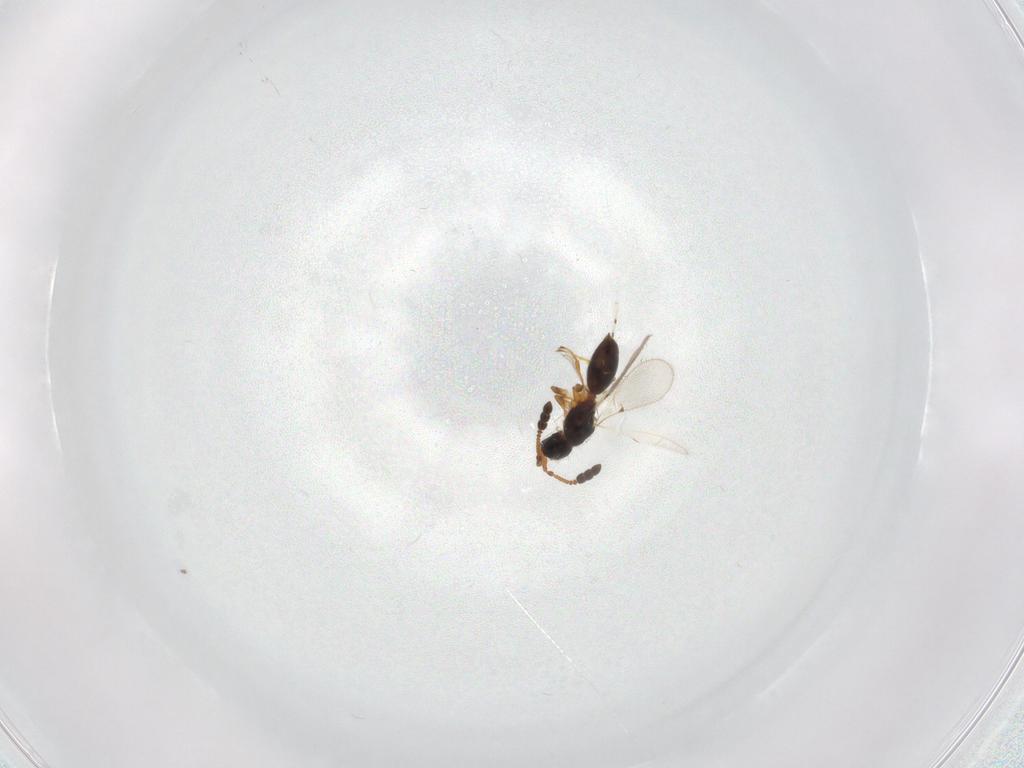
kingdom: Animalia
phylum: Arthropoda
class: Insecta
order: Hymenoptera
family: Diapriidae
